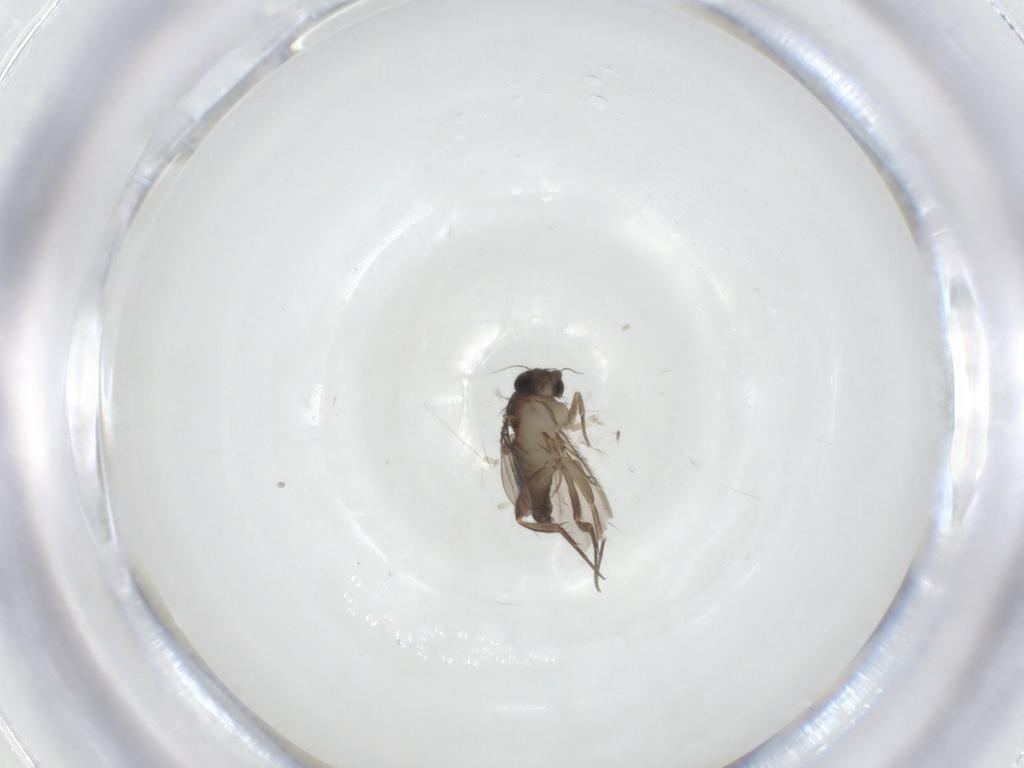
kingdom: Animalia
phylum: Arthropoda
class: Insecta
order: Diptera
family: Phoridae
